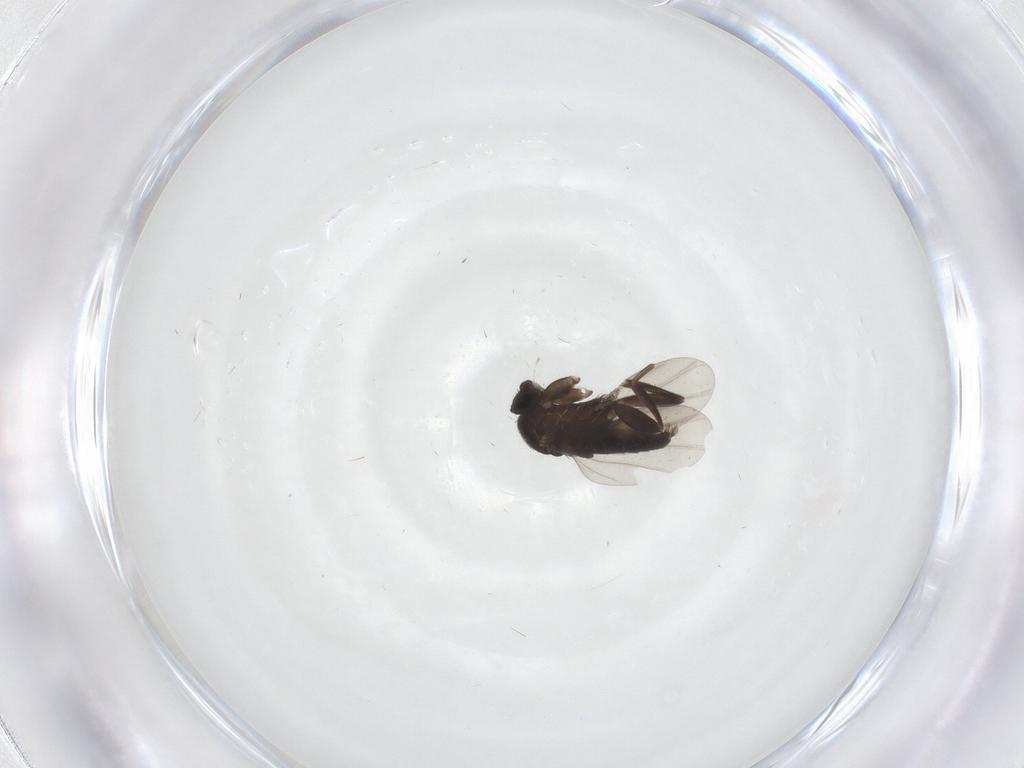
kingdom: Animalia
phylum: Arthropoda
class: Insecta
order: Diptera
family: Phoridae
